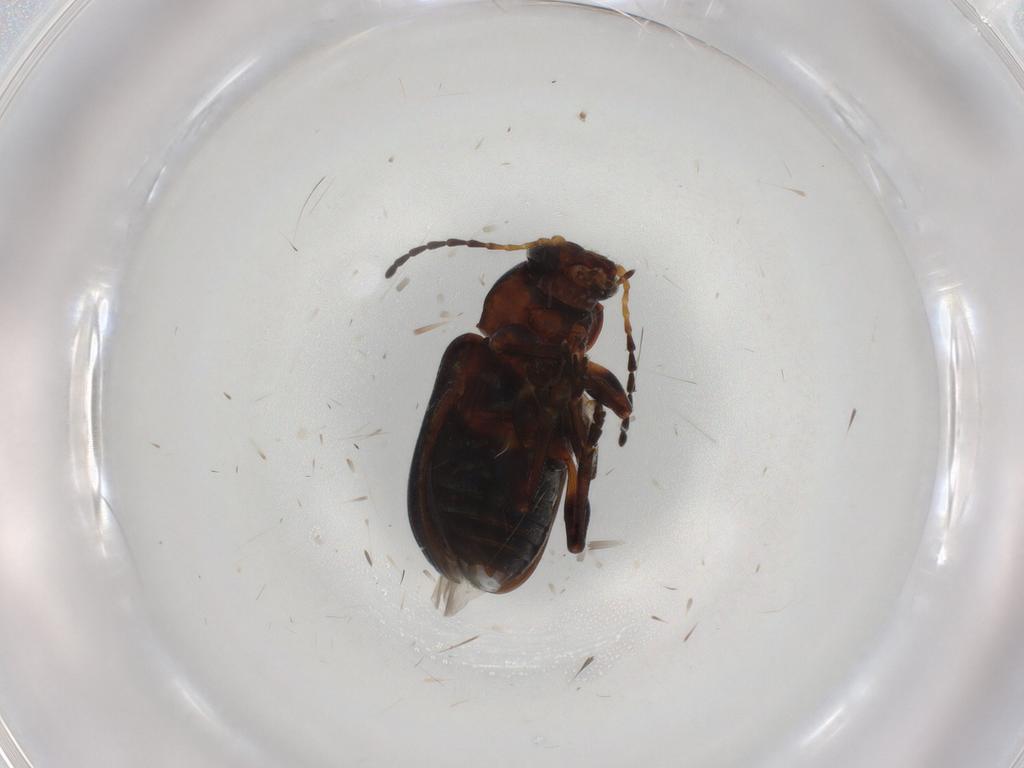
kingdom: Animalia
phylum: Arthropoda
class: Insecta
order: Coleoptera
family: Chrysomelidae
